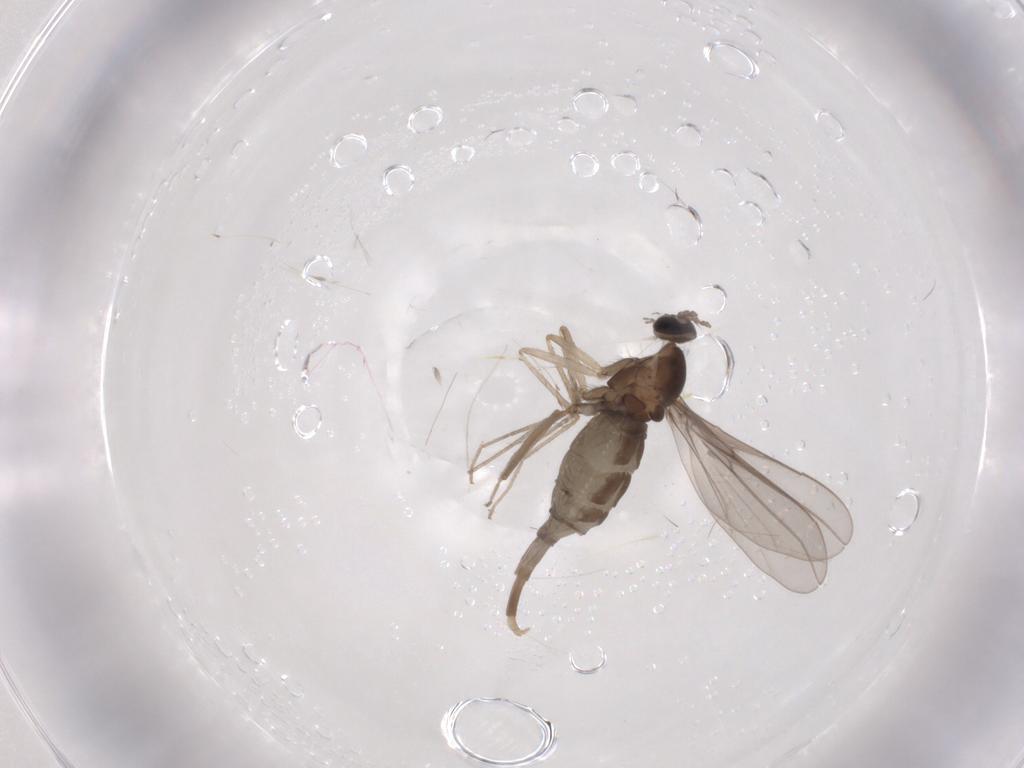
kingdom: Animalia
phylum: Arthropoda
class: Insecta
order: Diptera
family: Cecidomyiidae
